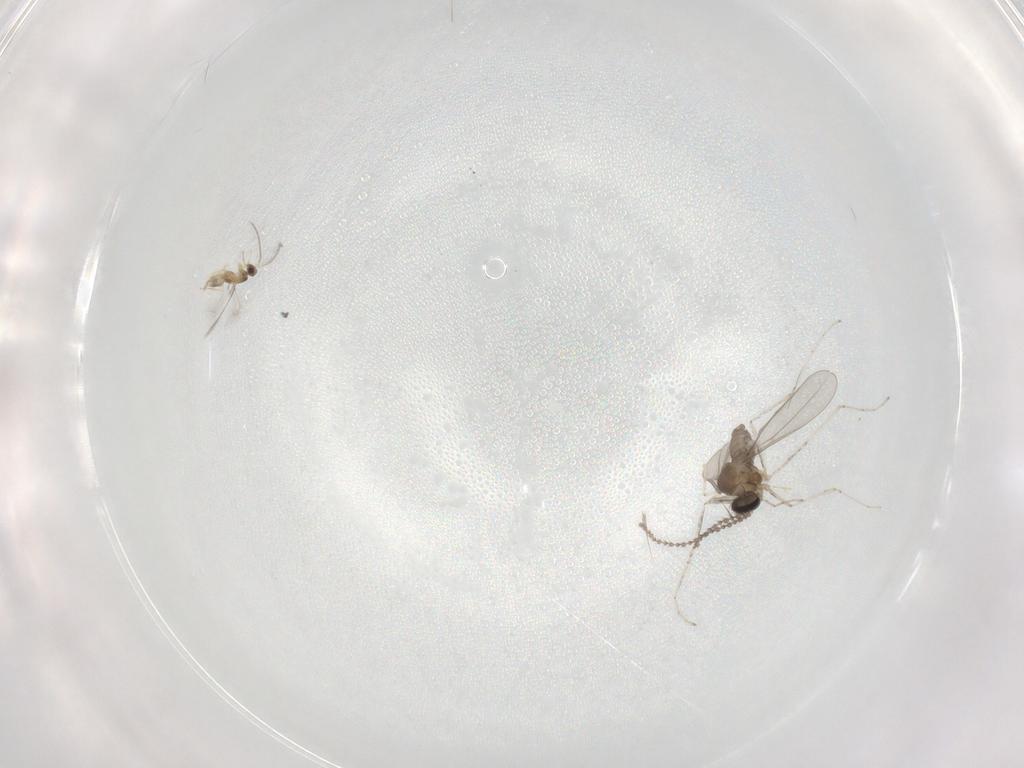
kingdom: Animalia
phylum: Arthropoda
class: Insecta
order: Diptera
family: Cecidomyiidae
